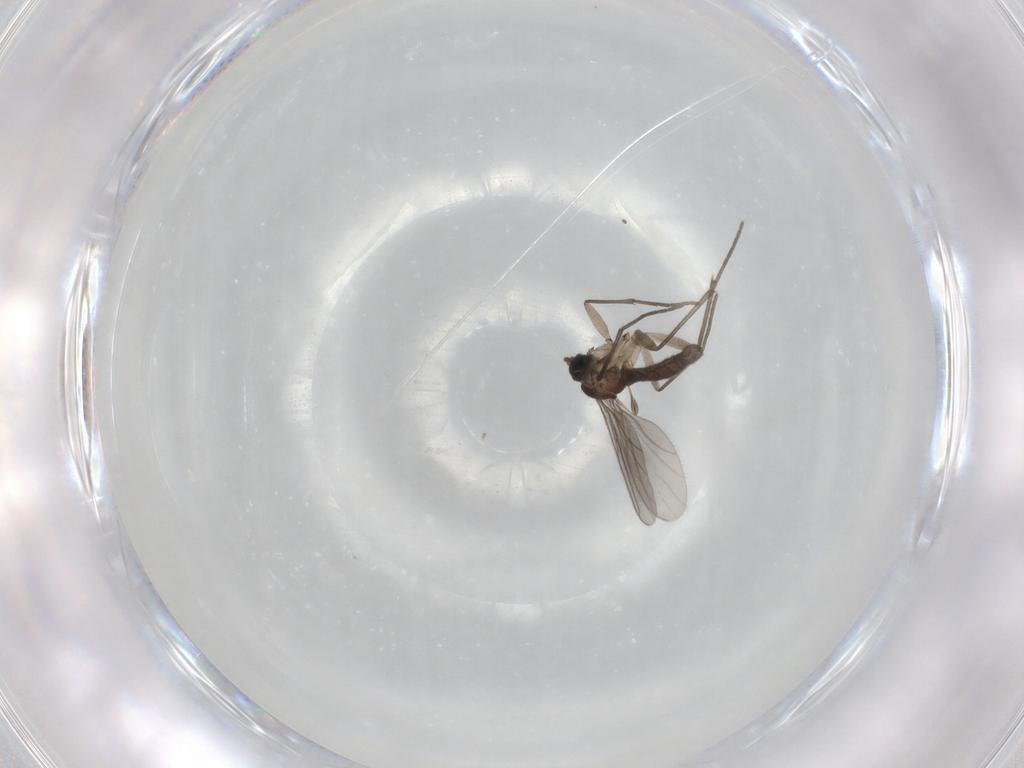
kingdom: Animalia
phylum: Arthropoda
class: Insecta
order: Diptera
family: Sciaridae
